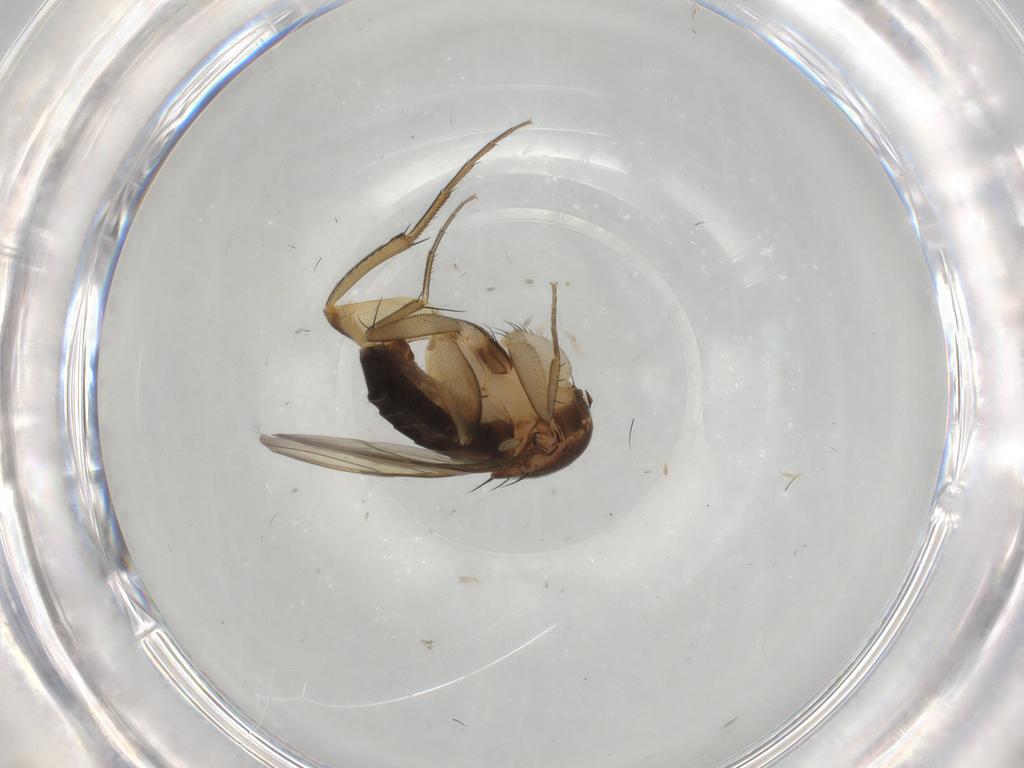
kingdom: Animalia
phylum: Arthropoda
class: Insecta
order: Diptera
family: Phoridae
